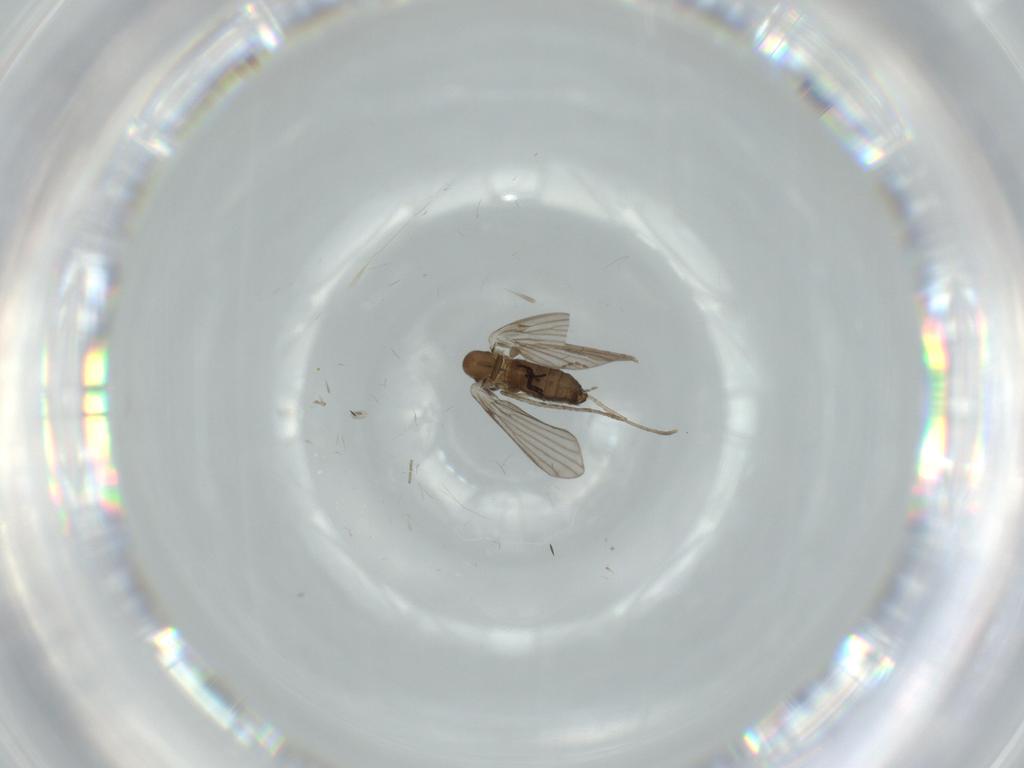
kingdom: Animalia
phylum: Arthropoda
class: Insecta
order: Diptera
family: Psychodidae
